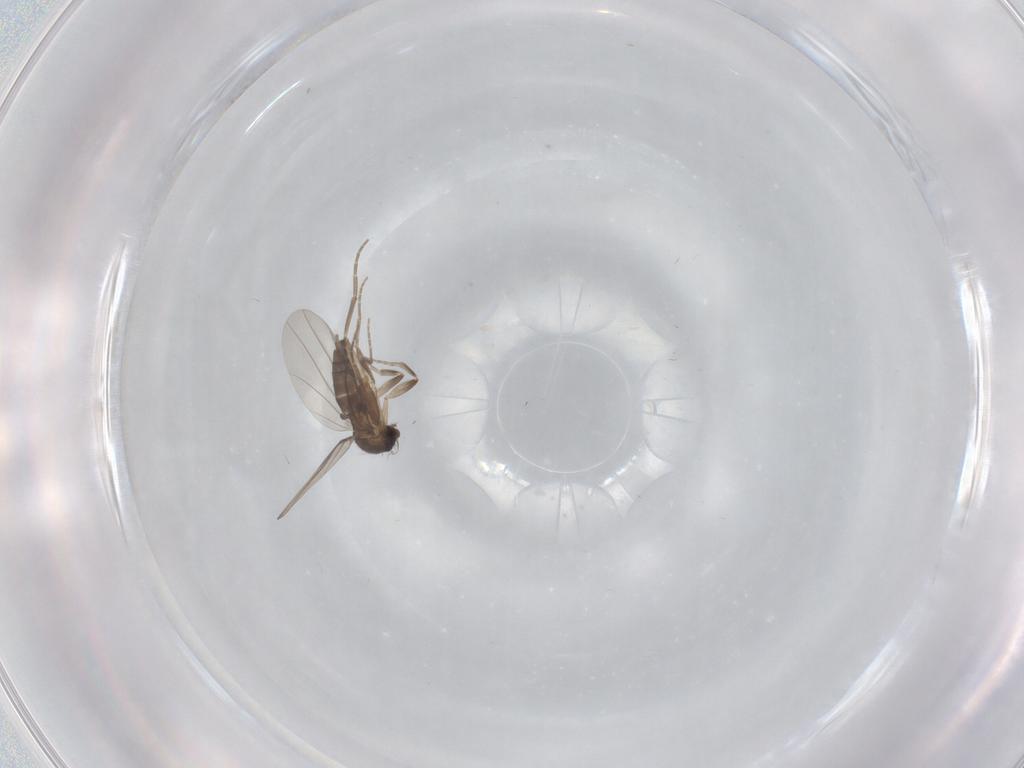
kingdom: Animalia
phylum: Arthropoda
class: Insecta
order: Diptera
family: Phoridae
